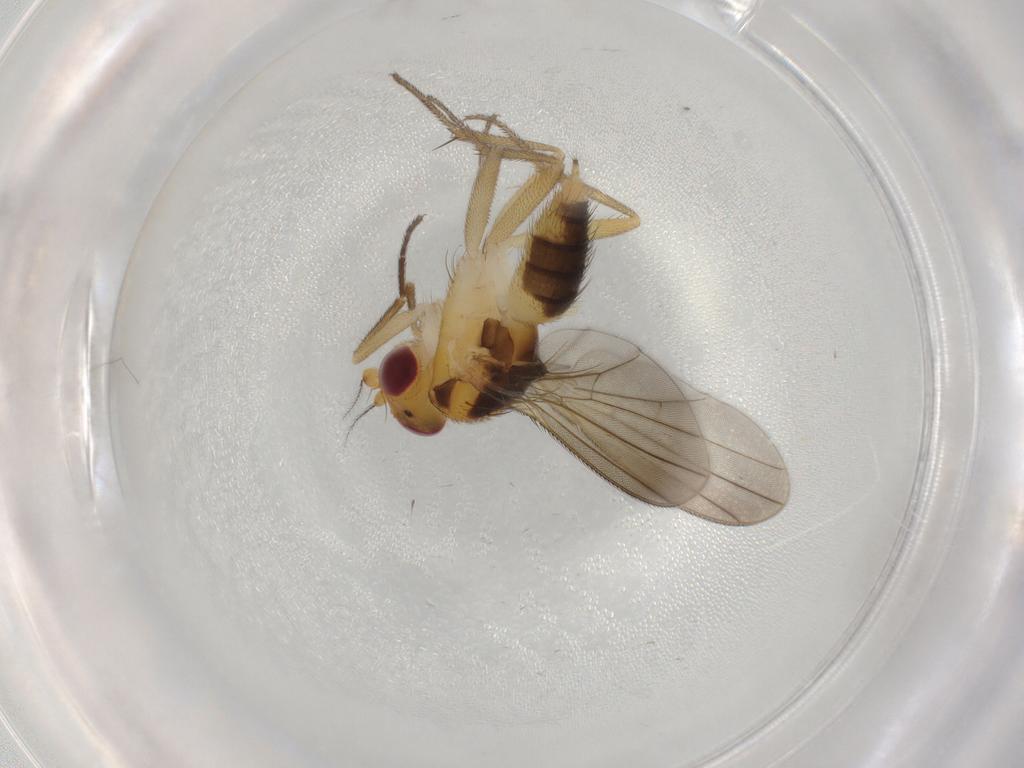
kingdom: Animalia
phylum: Arthropoda
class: Insecta
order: Diptera
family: Clusiidae
